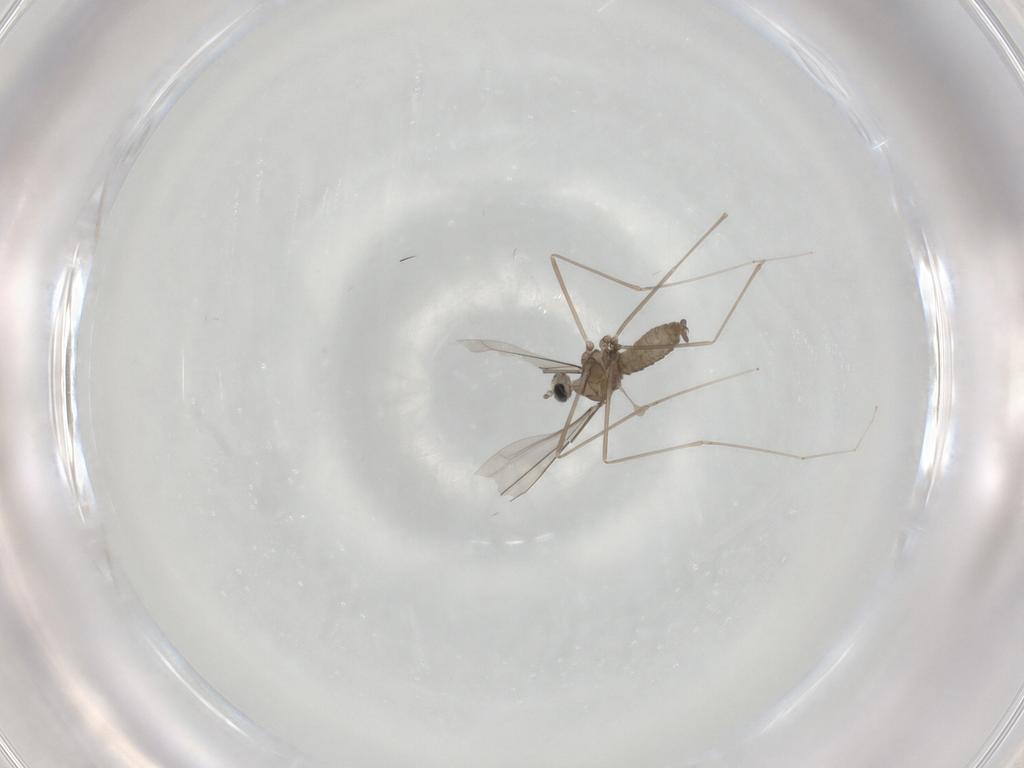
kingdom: Animalia
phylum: Arthropoda
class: Insecta
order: Diptera
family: Cecidomyiidae
